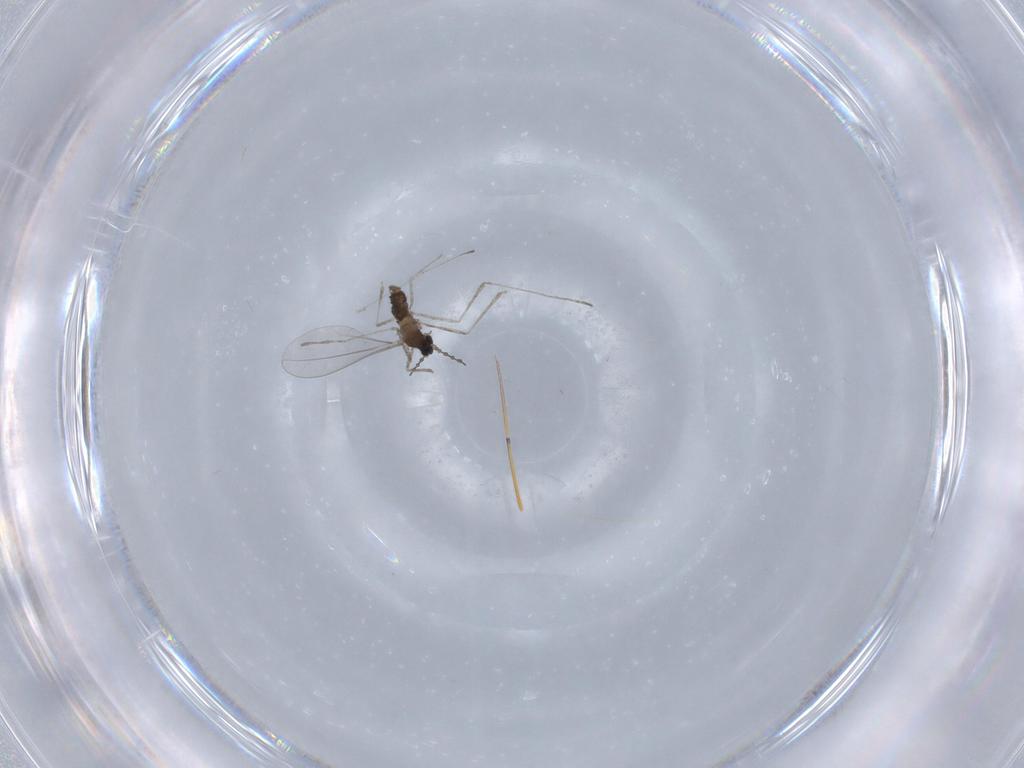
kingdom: Animalia
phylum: Arthropoda
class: Insecta
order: Diptera
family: Cecidomyiidae
